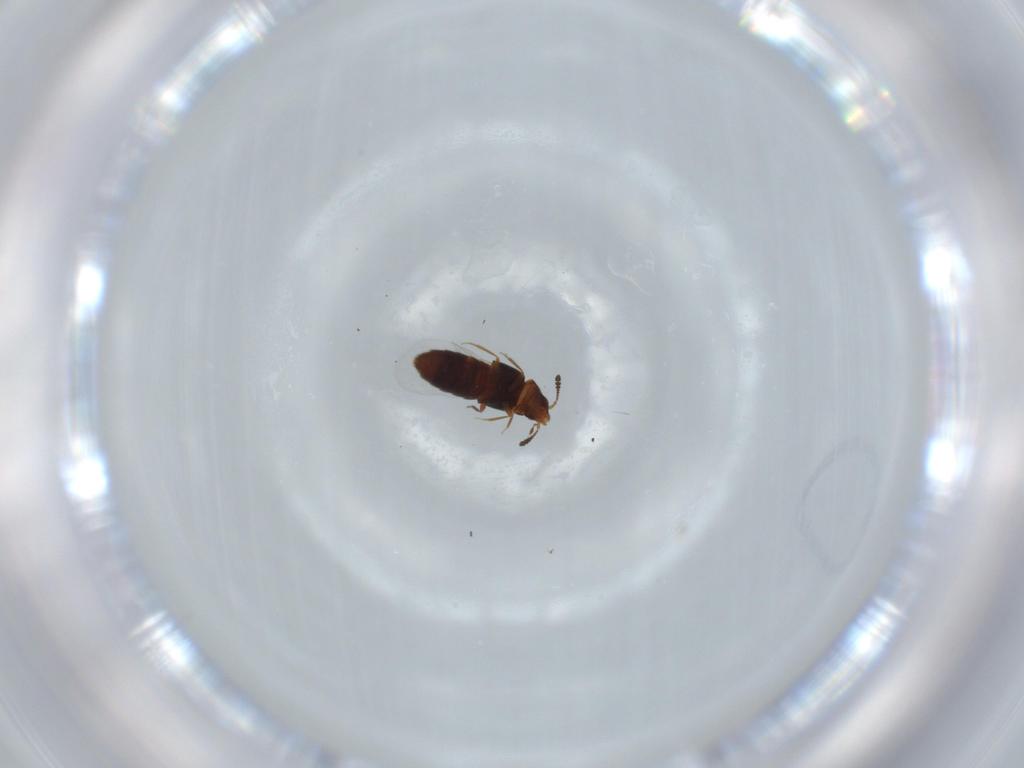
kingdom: Animalia
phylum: Arthropoda
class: Insecta
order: Coleoptera
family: Staphylinidae
